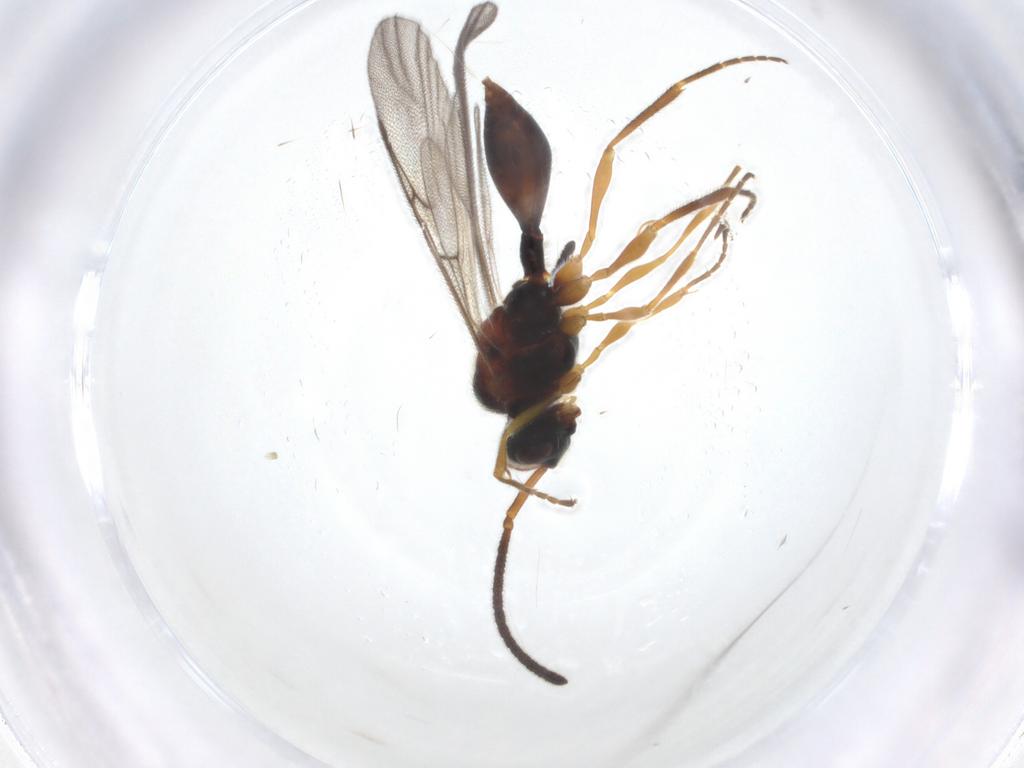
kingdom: Animalia
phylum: Arthropoda
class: Insecta
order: Hymenoptera
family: Diapriidae
